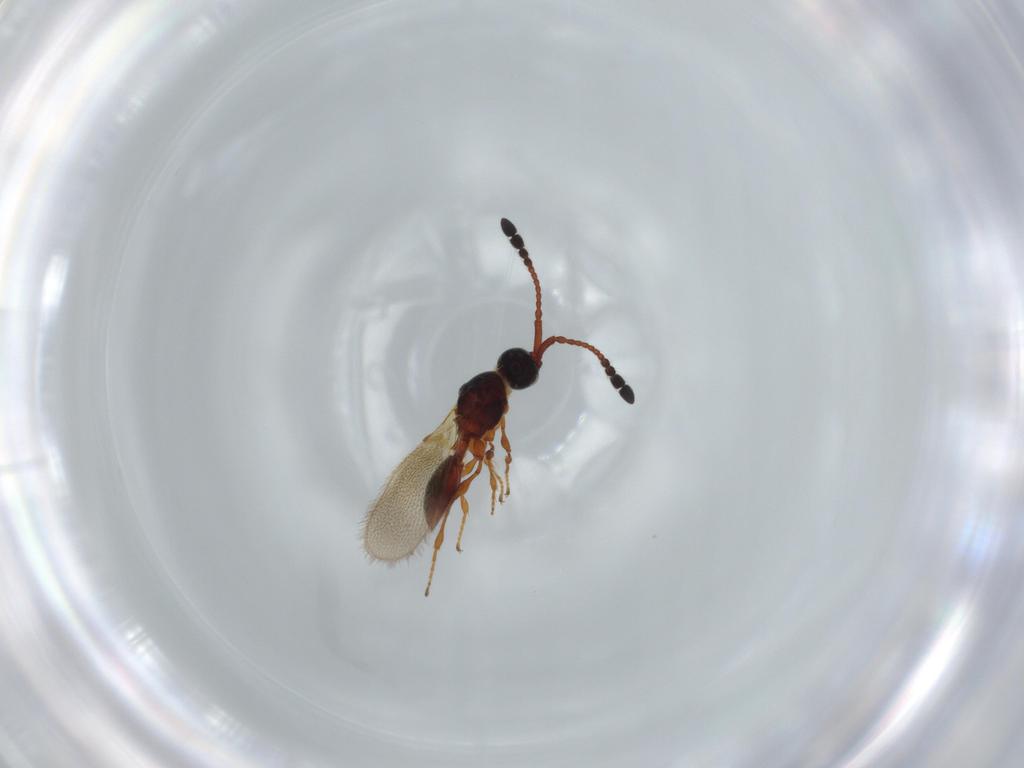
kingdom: Animalia
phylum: Arthropoda
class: Insecta
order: Hymenoptera
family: Diapriidae
